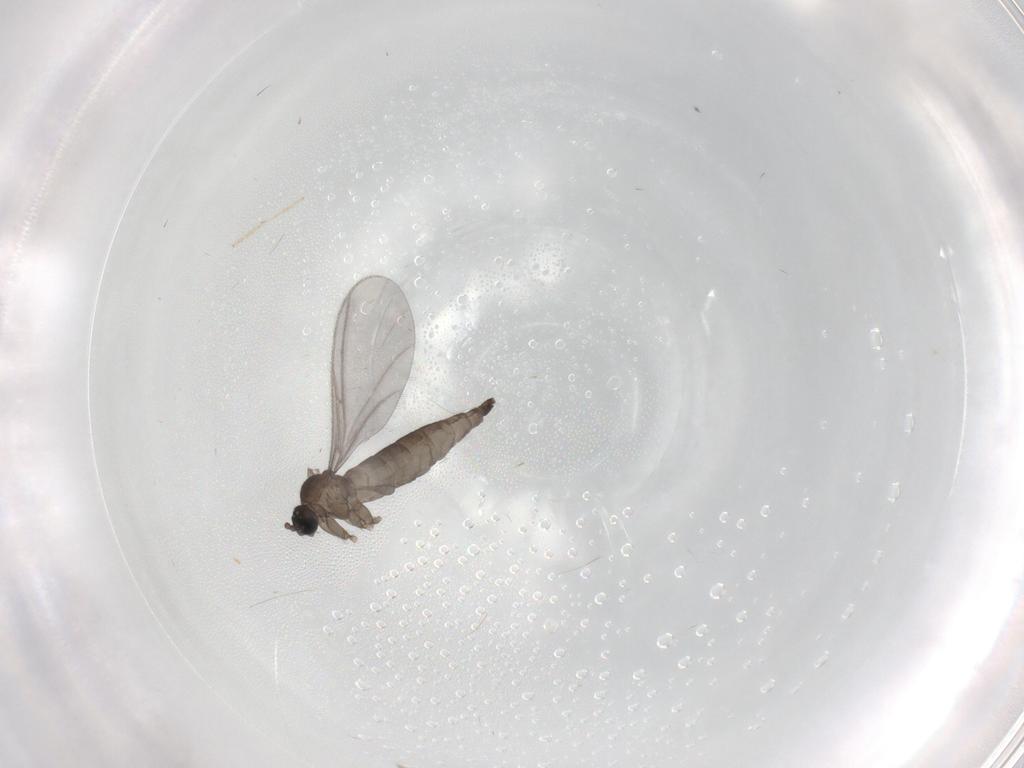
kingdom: Animalia
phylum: Arthropoda
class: Insecta
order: Diptera
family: Sciaridae
